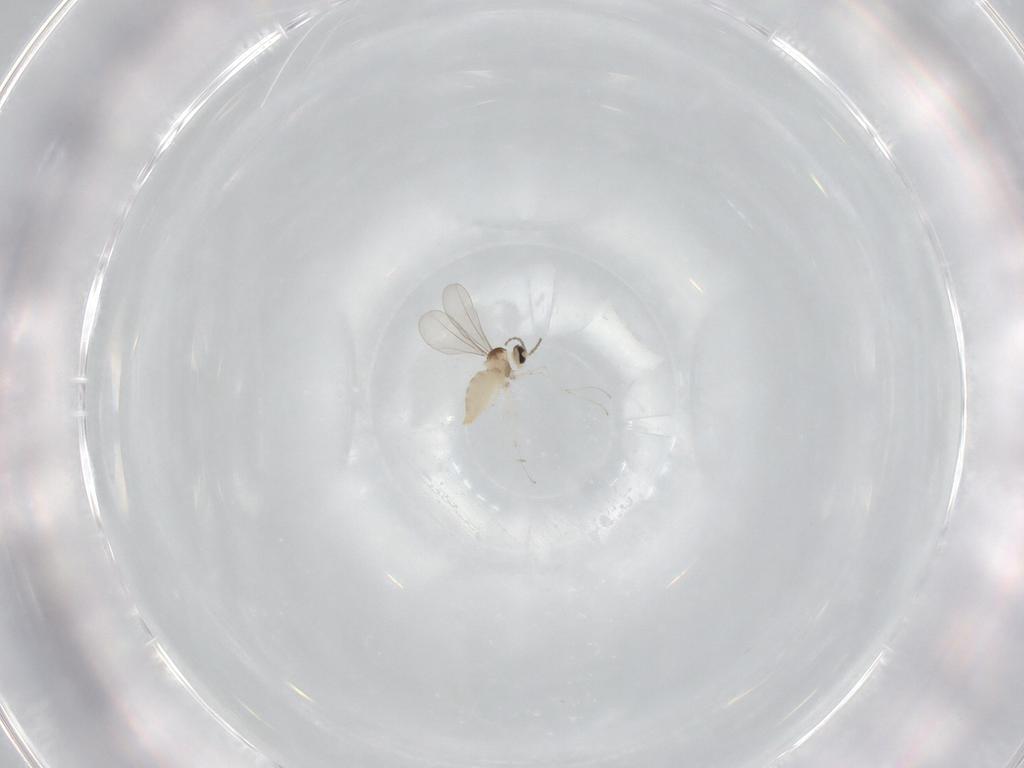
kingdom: Animalia
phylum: Arthropoda
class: Insecta
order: Diptera
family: Cecidomyiidae
